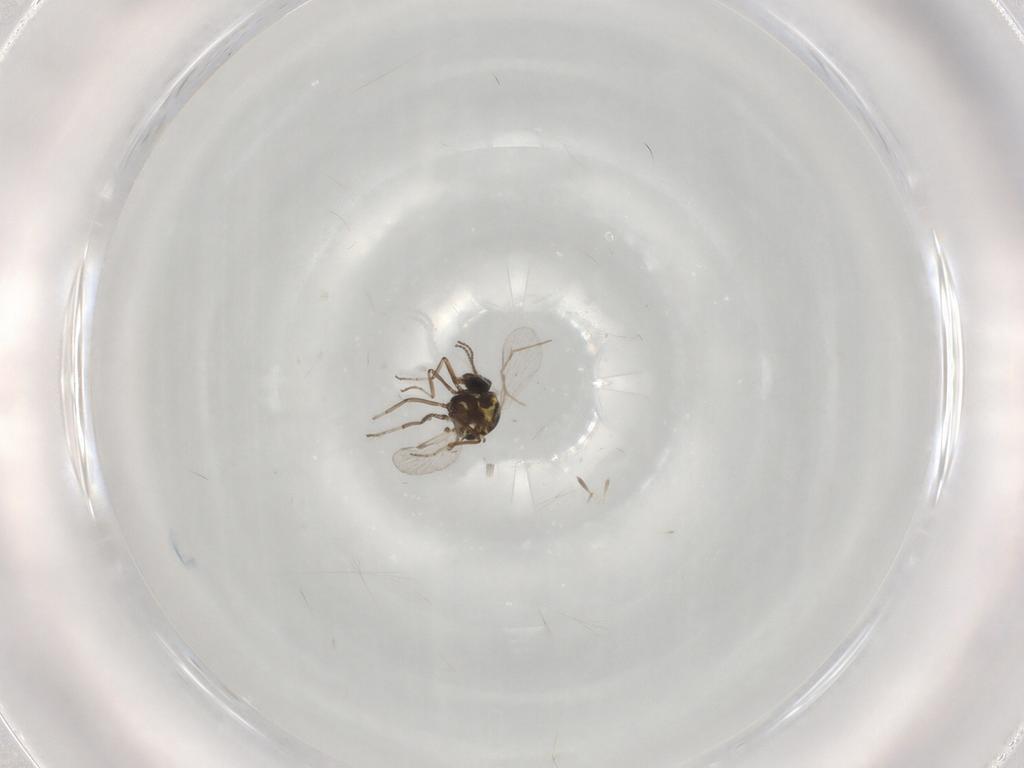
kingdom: Animalia
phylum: Arthropoda
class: Insecta
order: Diptera
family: Ceratopogonidae
